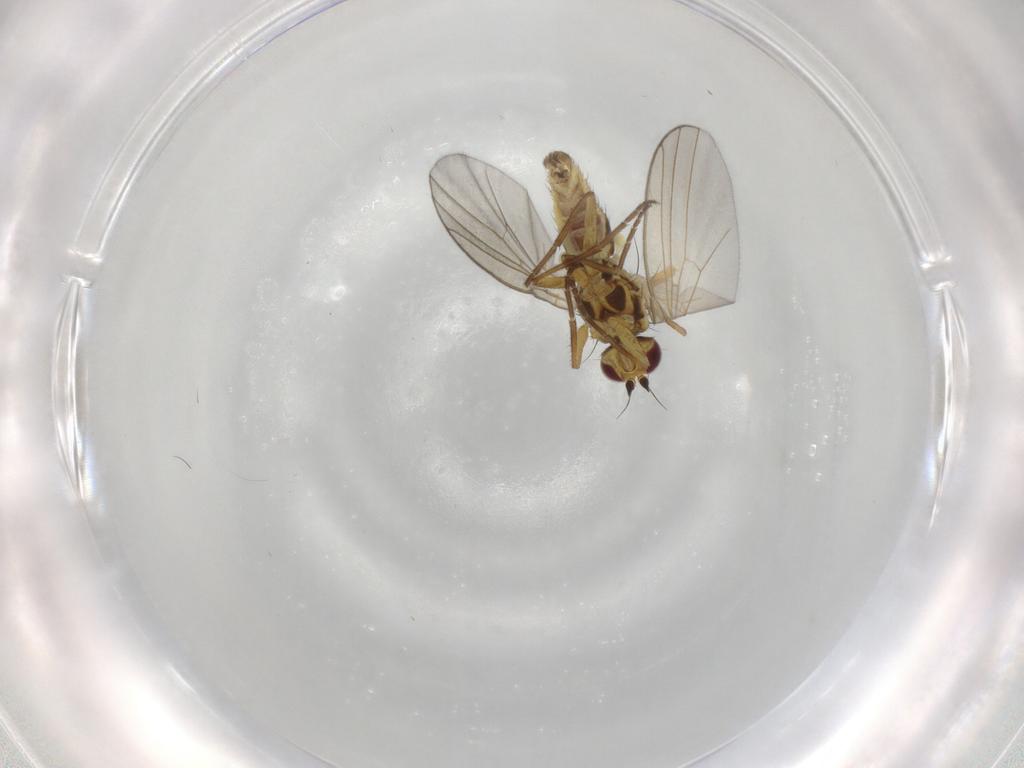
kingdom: Animalia
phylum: Arthropoda
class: Insecta
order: Diptera
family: Agromyzidae
